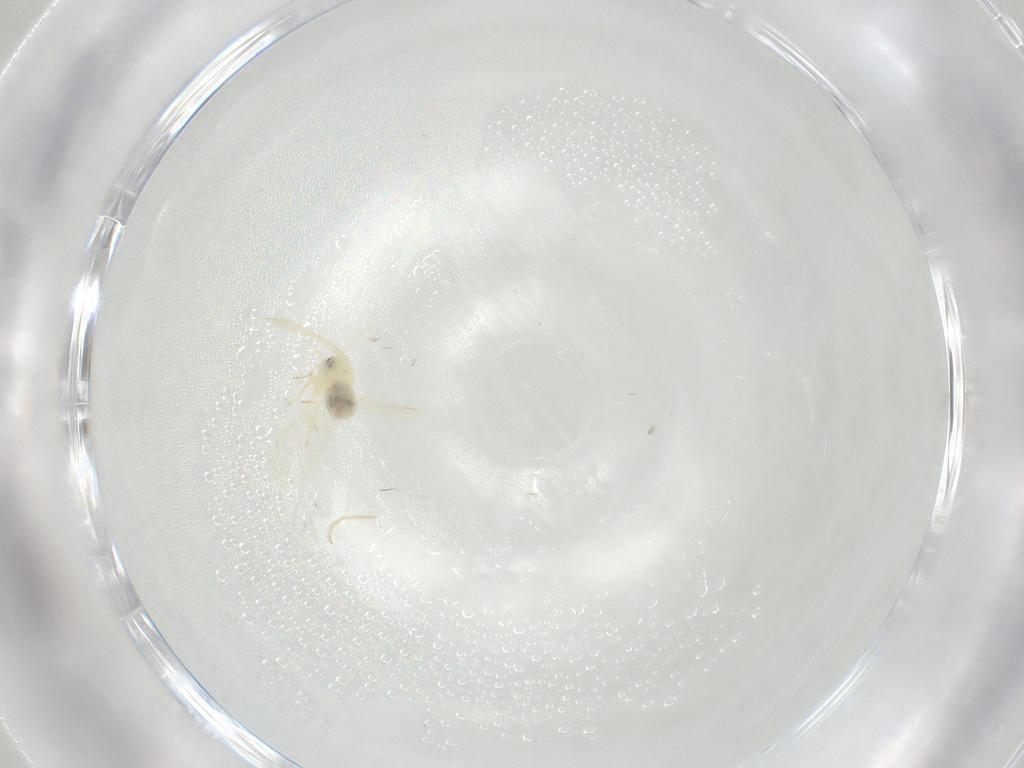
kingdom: Animalia
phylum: Arthropoda
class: Insecta
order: Hemiptera
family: Aleyrodidae
